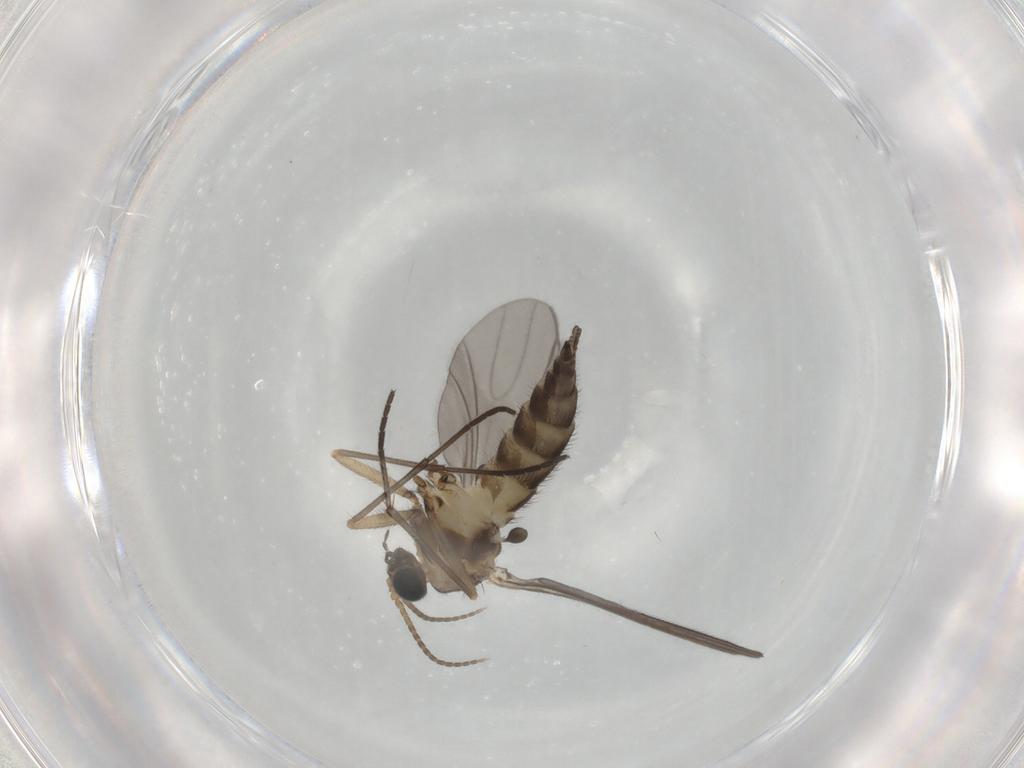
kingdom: Animalia
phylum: Arthropoda
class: Insecta
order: Diptera
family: Sciaridae
